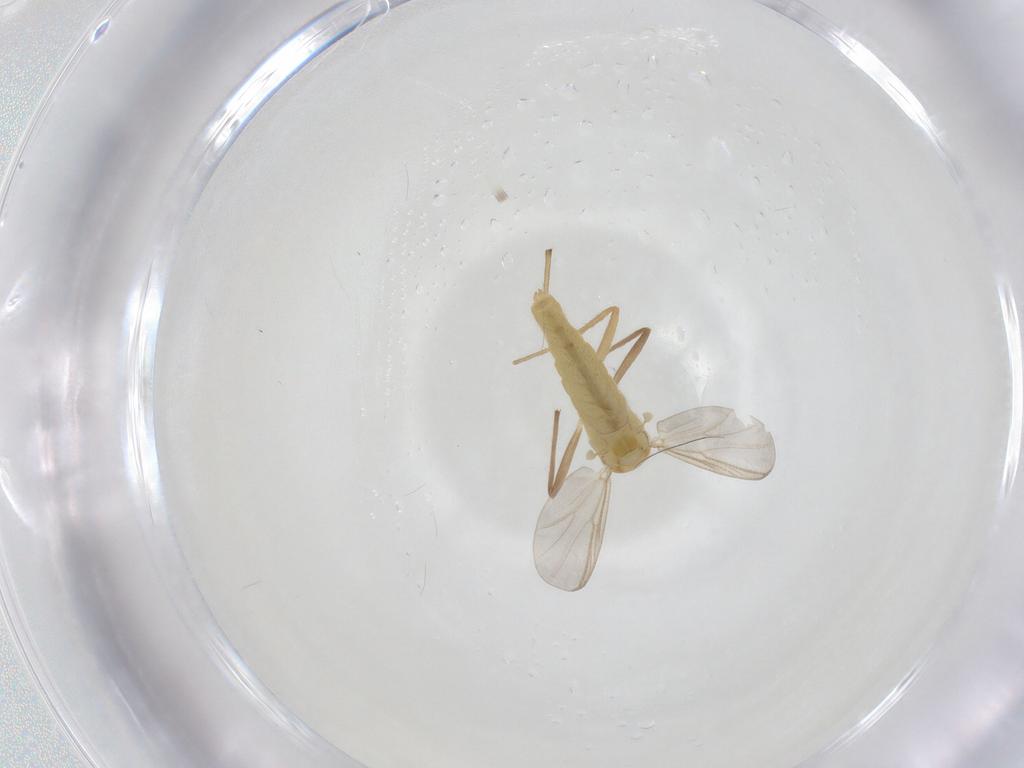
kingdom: Animalia
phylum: Arthropoda
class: Insecta
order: Diptera
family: Chironomidae
